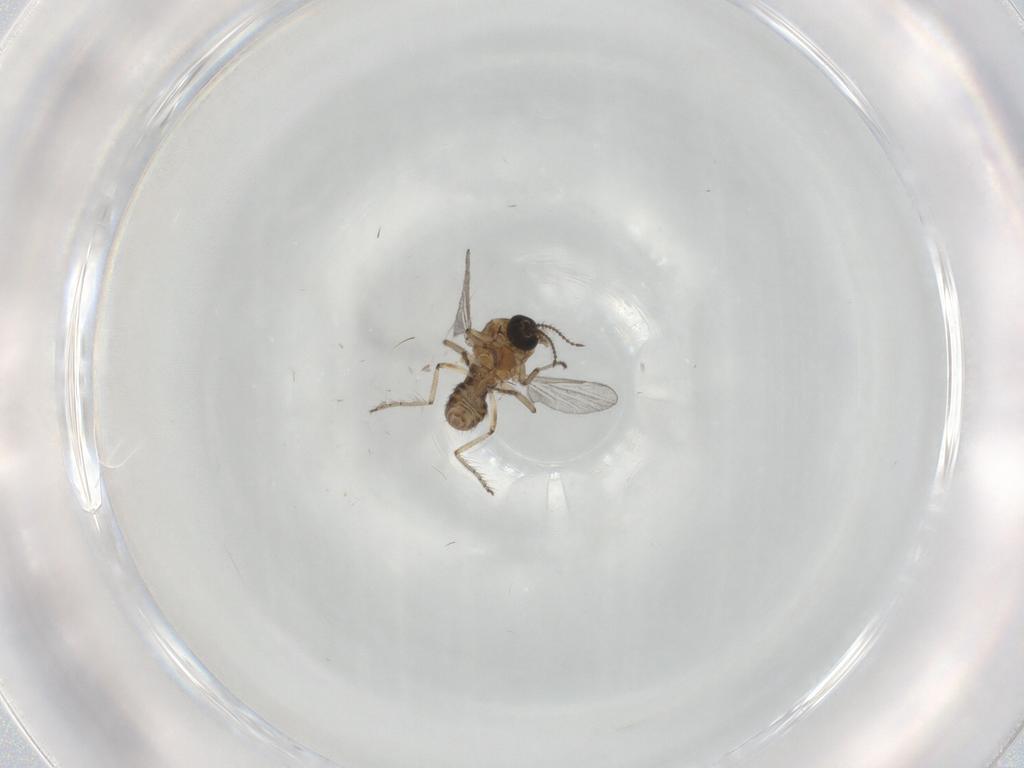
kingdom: Animalia
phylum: Arthropoda
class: Insecta
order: Diptera
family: Ceratopogonidae
